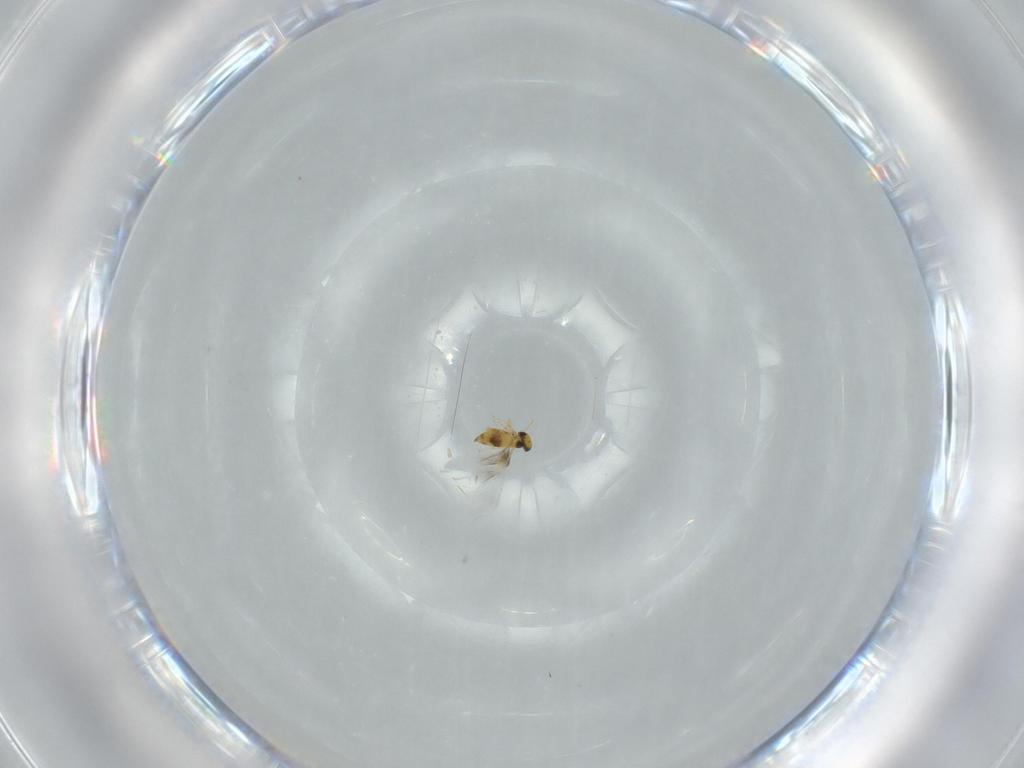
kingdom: Animalia
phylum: Arthropoda
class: Insecta
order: Hymenoptera
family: Signiphoridae
